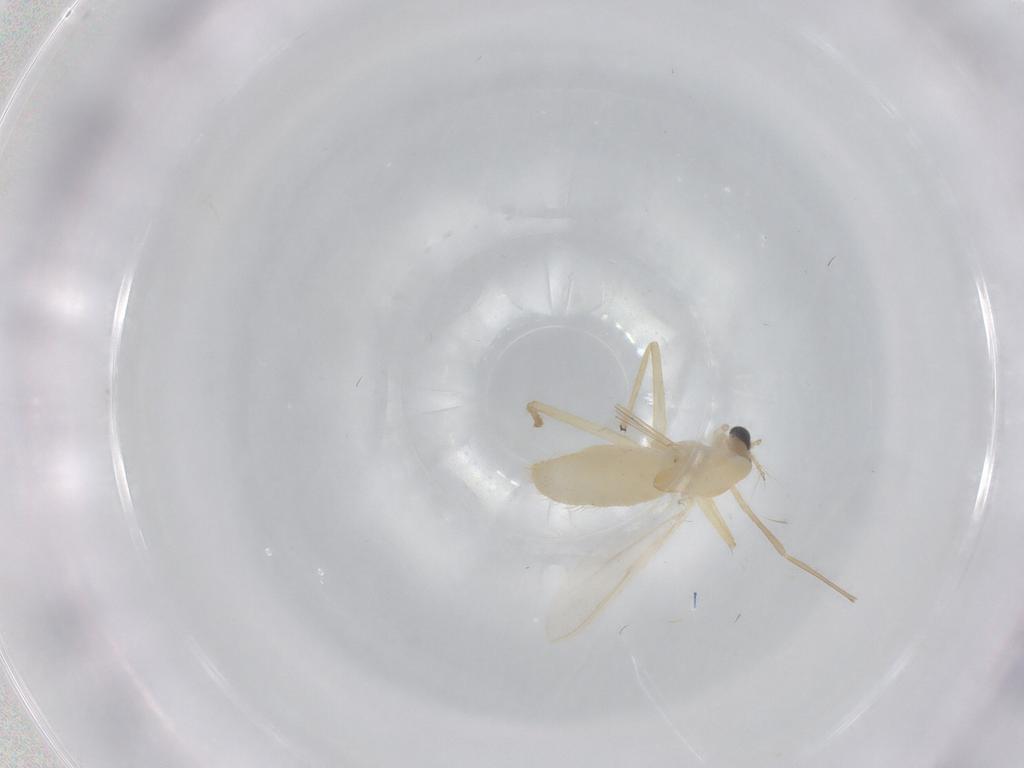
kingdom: Animalia
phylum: Arthropoda
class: Insecta
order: Diptera
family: Chironomidae
